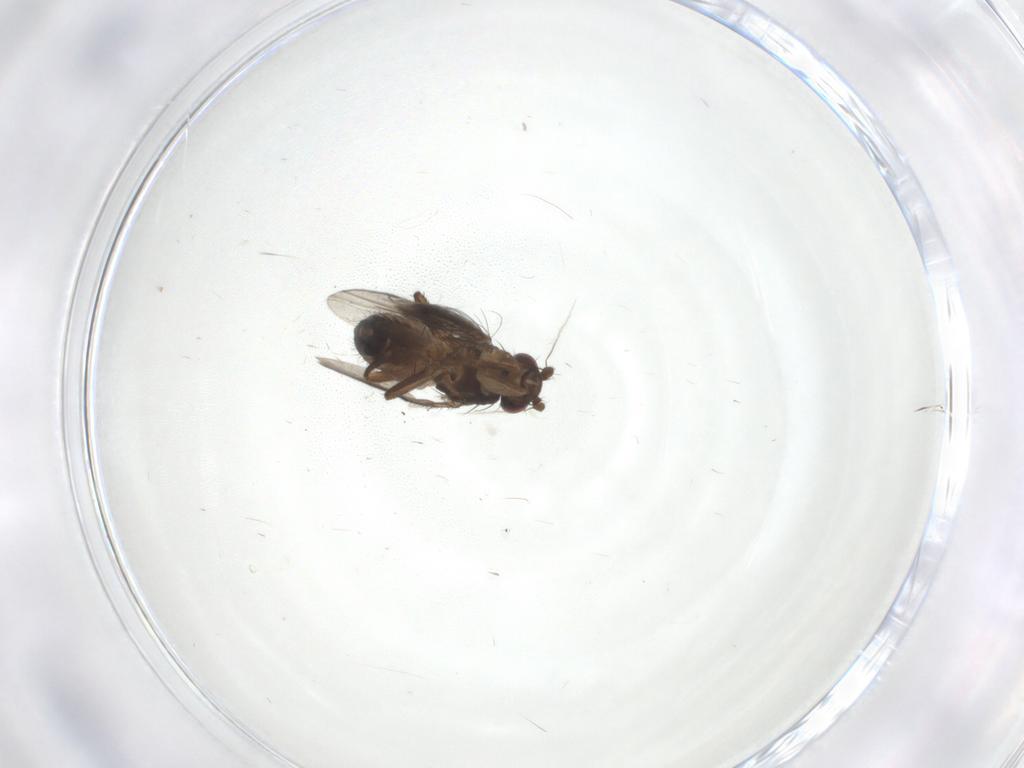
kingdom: Animalia
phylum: Arthropoda
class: Insecta
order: Diptera
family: Sphaeroceridae
